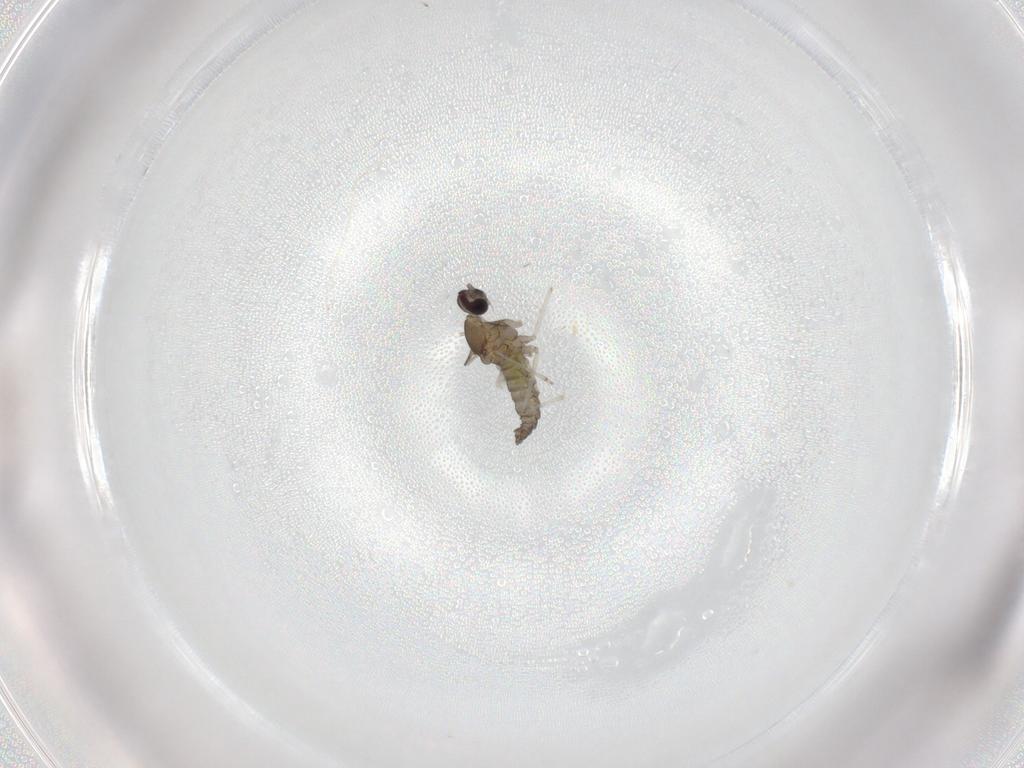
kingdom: Animalia
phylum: Arthropoda
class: Insecta
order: Diptera
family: Cecidomyiidae
